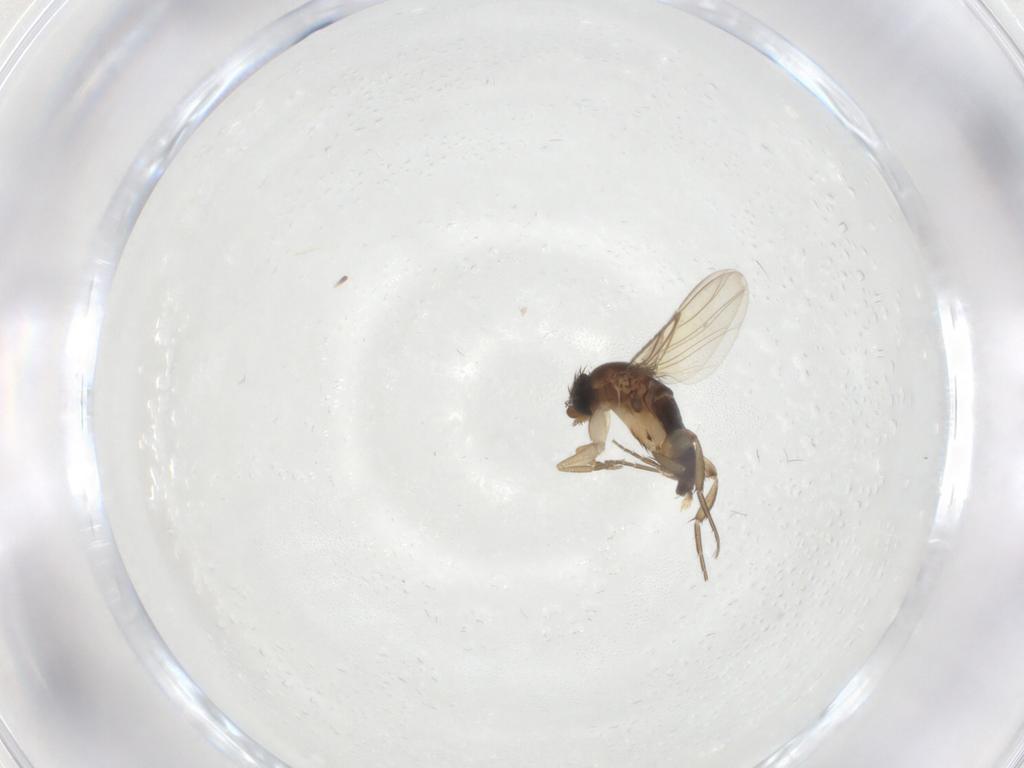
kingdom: Animalia
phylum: Arthropoda
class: Insecta
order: Diptera
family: Phoridae
